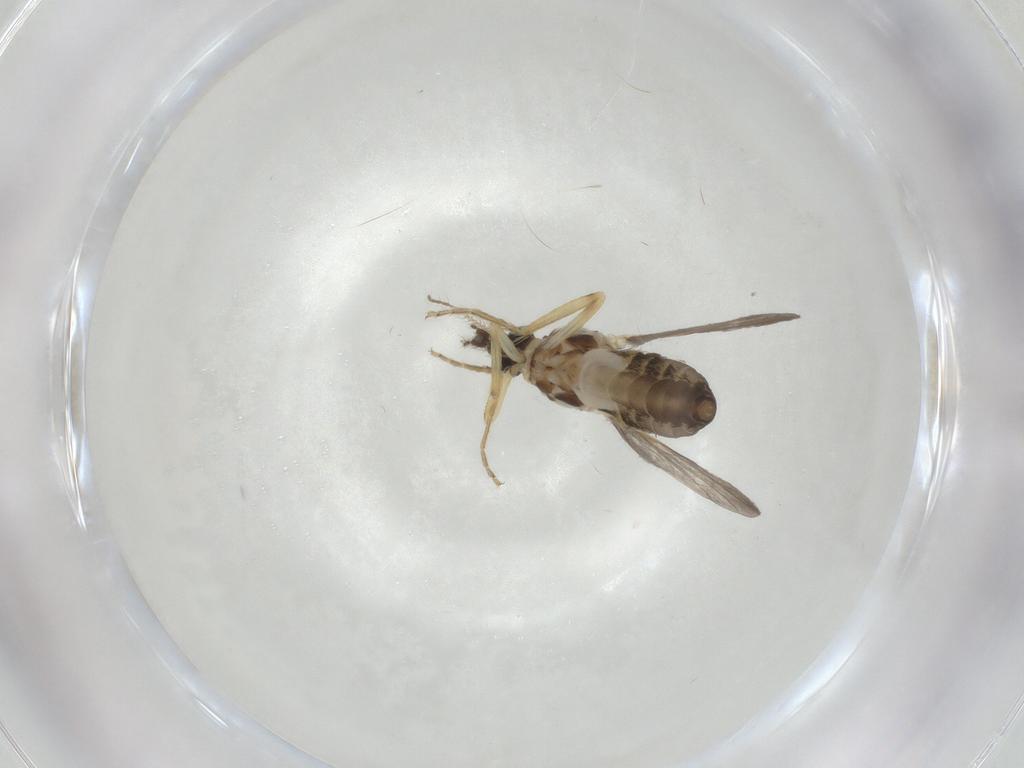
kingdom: Animalia
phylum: Arthropoda
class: Insecta
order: Diptera
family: Ceratopogonidae
